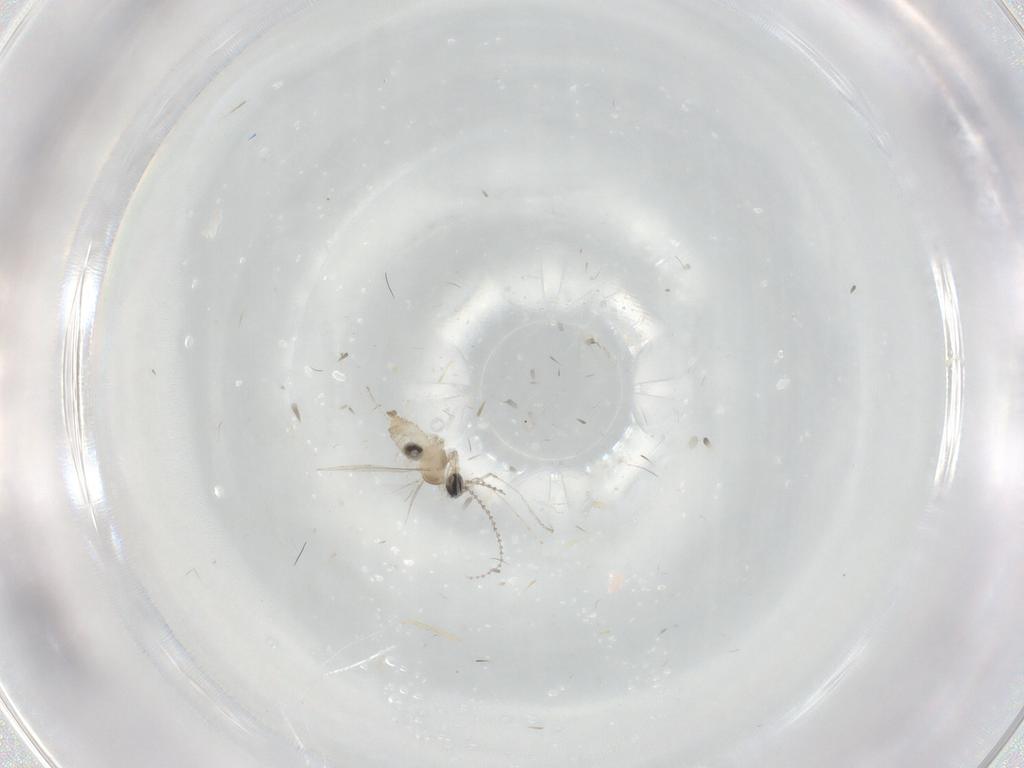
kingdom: Animalia
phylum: Arthropoda
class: Insecta
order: Diptera
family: Cecidomyiidae
